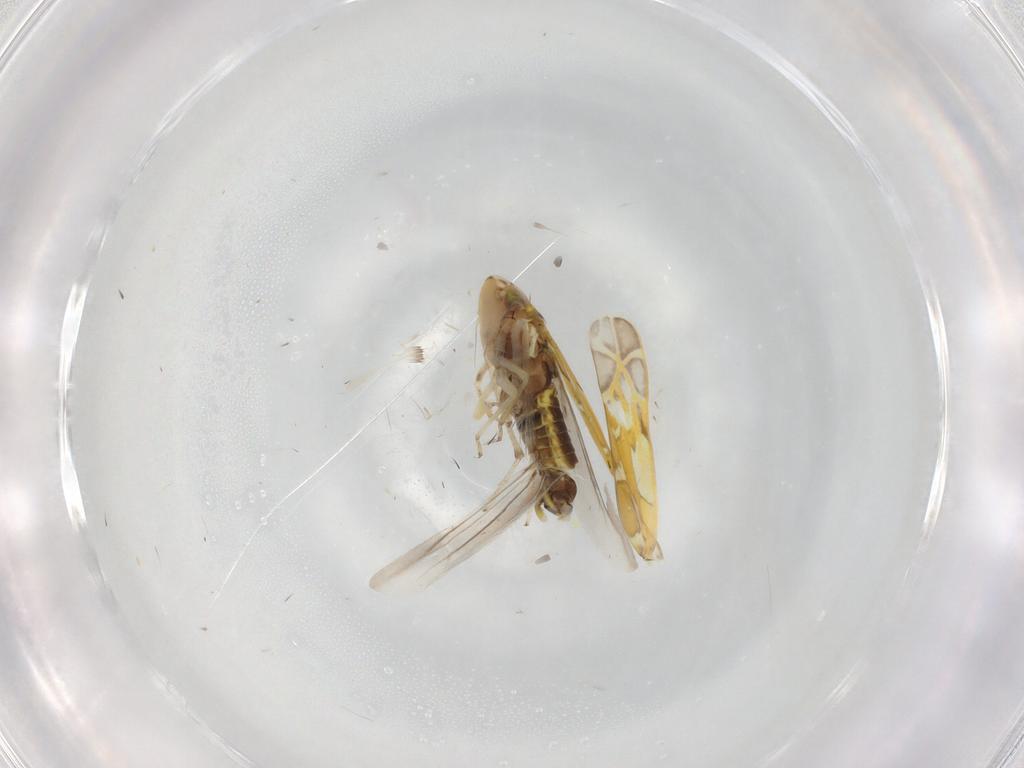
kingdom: Animalia
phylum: Arthropoda
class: Insecta
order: Hemiptera
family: Cicadellidae
